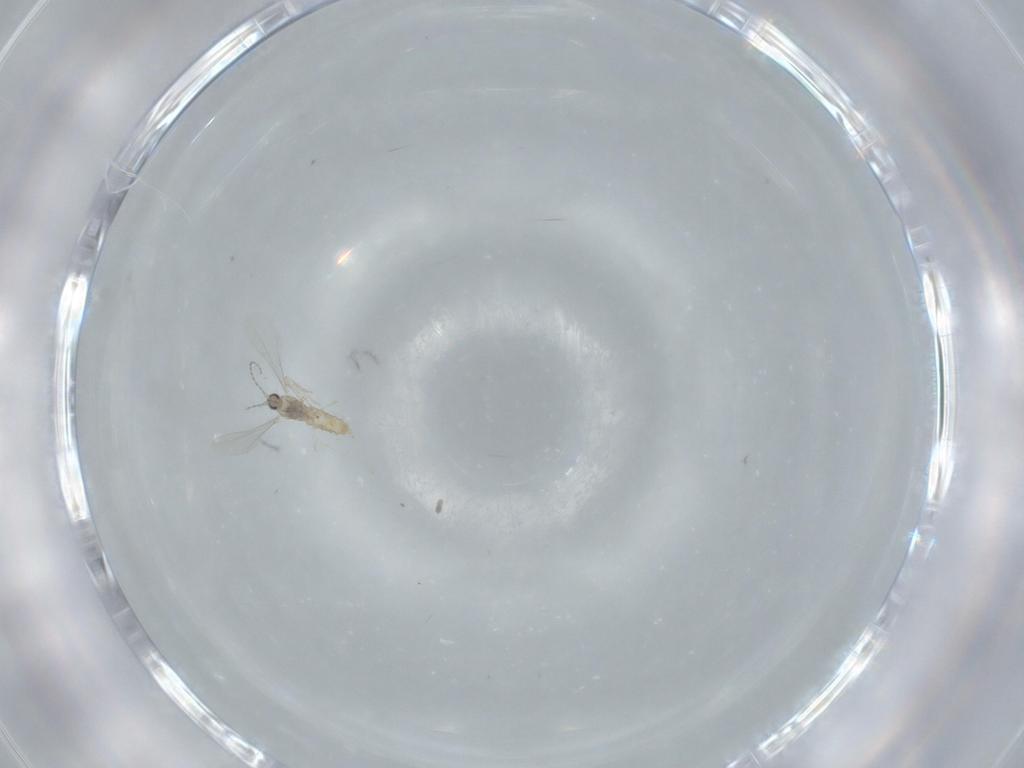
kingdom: Animalia
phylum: Arthropoda
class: Insecta
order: Diptera
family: Cecidomyiidae
